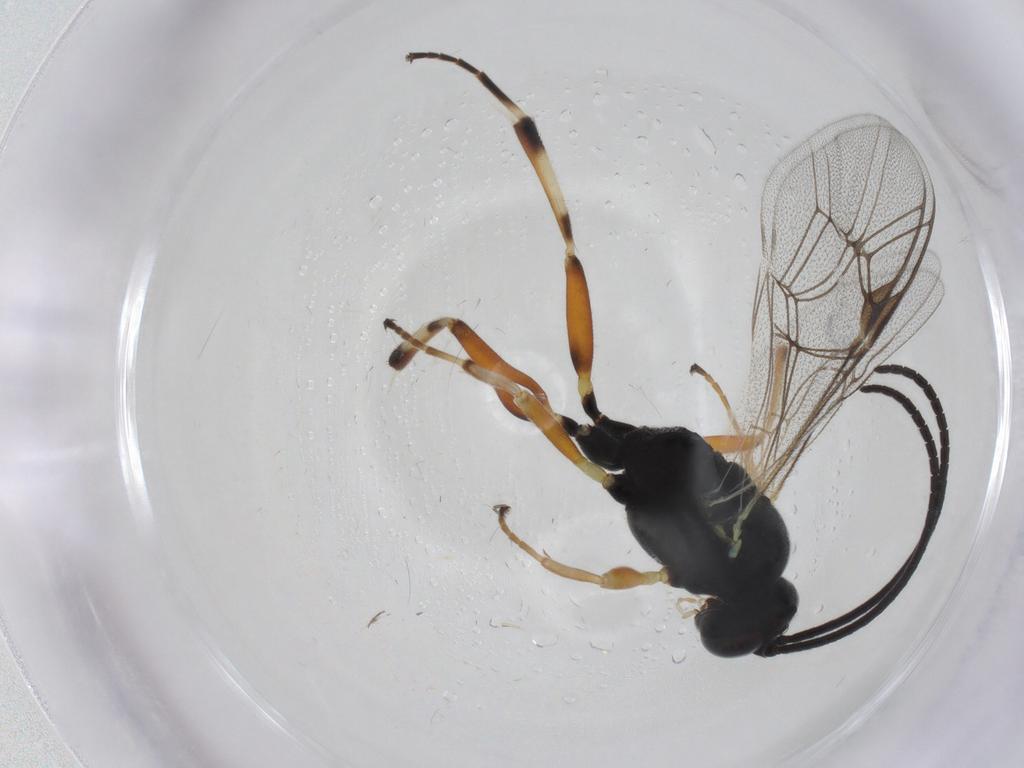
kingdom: Animalia
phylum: Arthropoda
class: Insecta
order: Hymenoptera
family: Ichneumonidae
